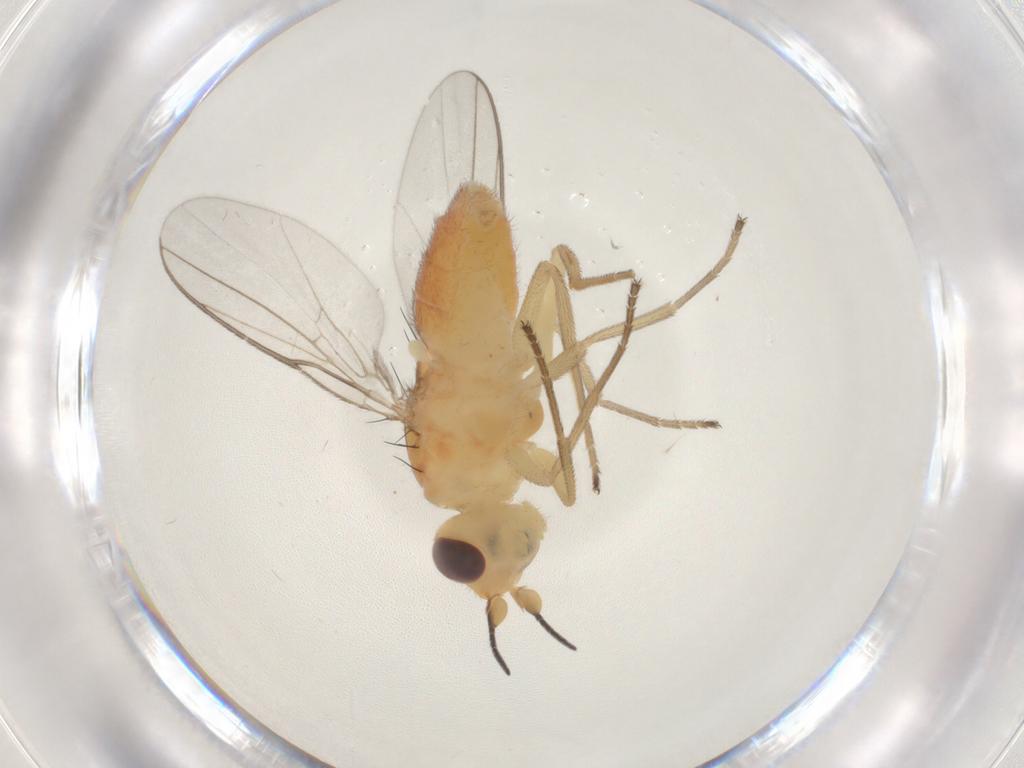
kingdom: Animalia
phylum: Arthropoda
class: Insecta
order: Diptera
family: Chloropidae
